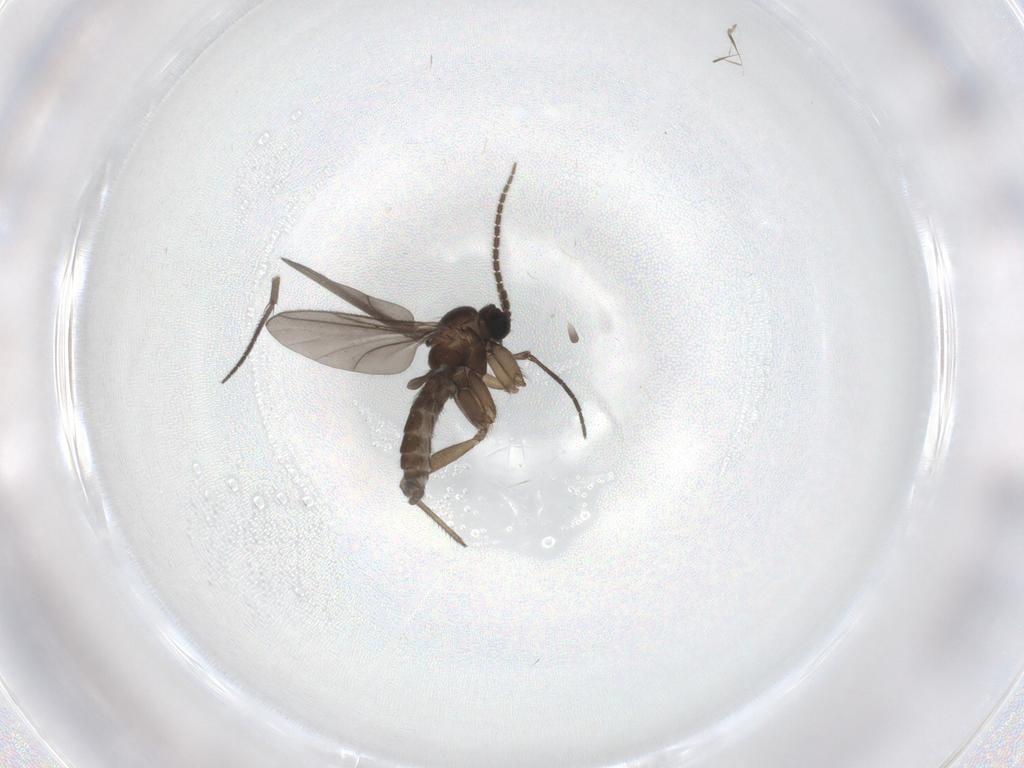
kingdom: Animalia
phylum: Arthropoda
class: Insecta
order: Diptera
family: Sciaridae
